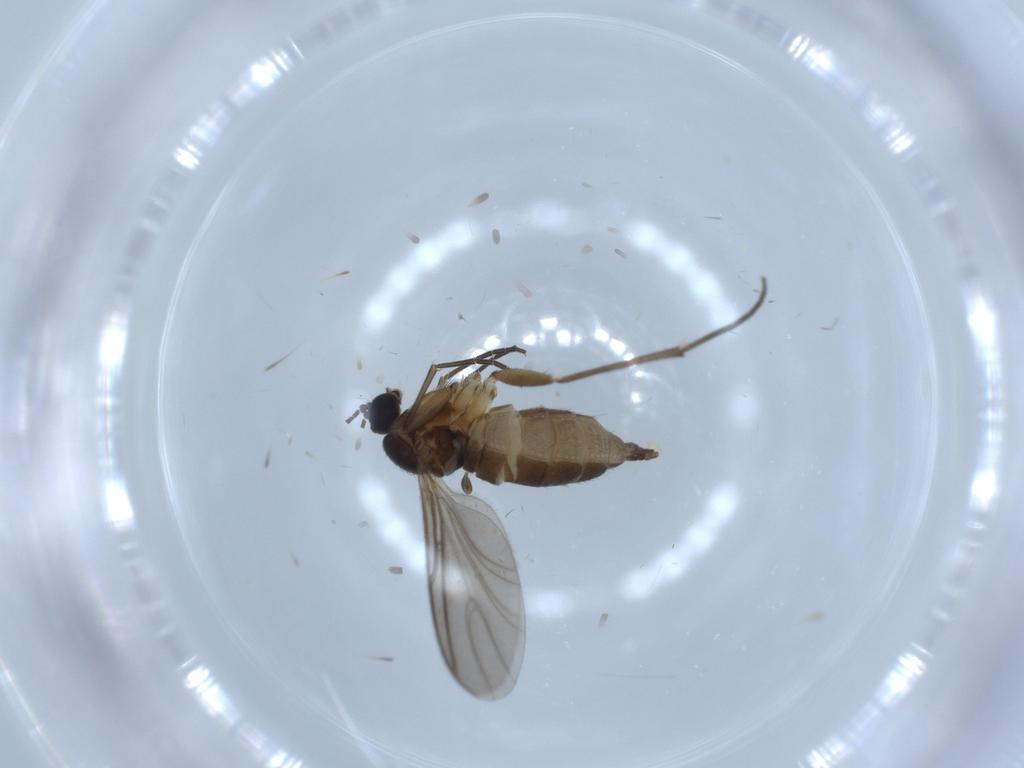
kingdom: Animalia
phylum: Arthropoda
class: Insecta
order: Diptera
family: Sciaridae
